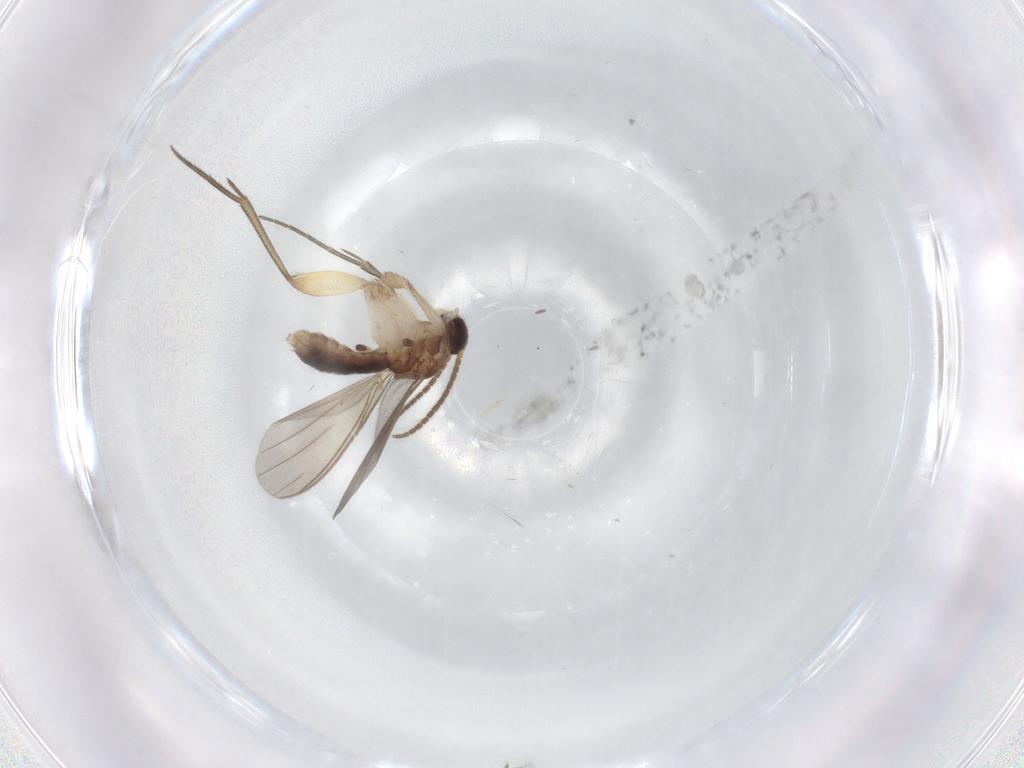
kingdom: Animalia
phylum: Arthropoda
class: Insecta
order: Diptera
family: Mycetophilidae
